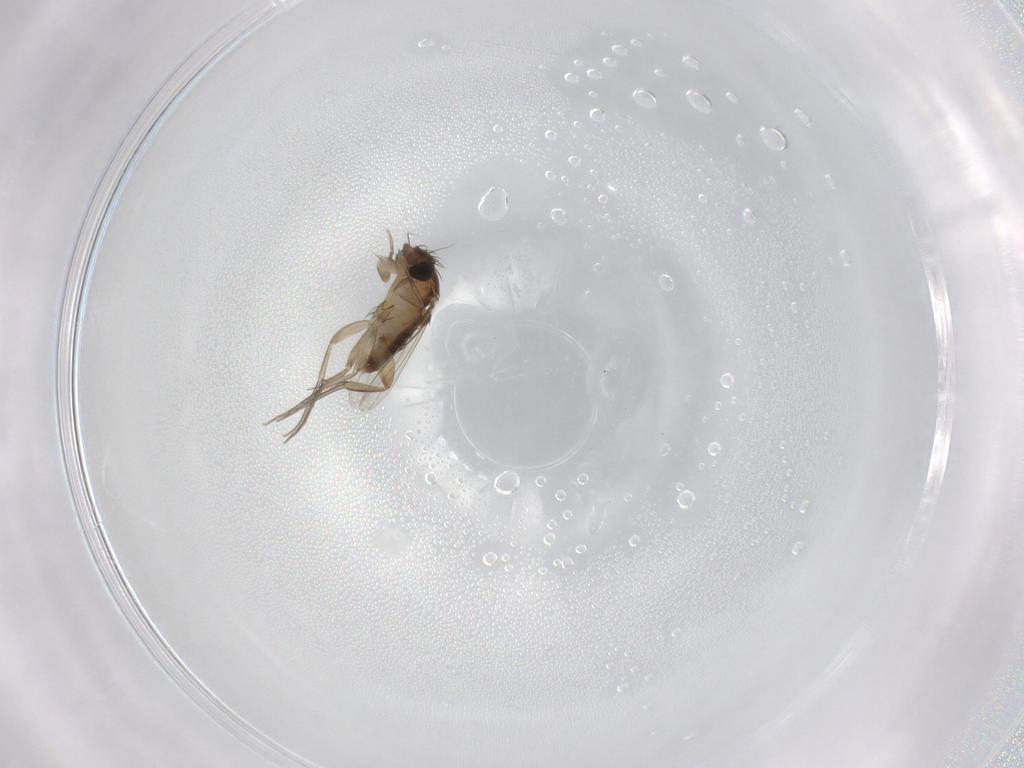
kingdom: Animalia
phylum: Arthropoda
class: Insecta
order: Diptera
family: Phoridae
